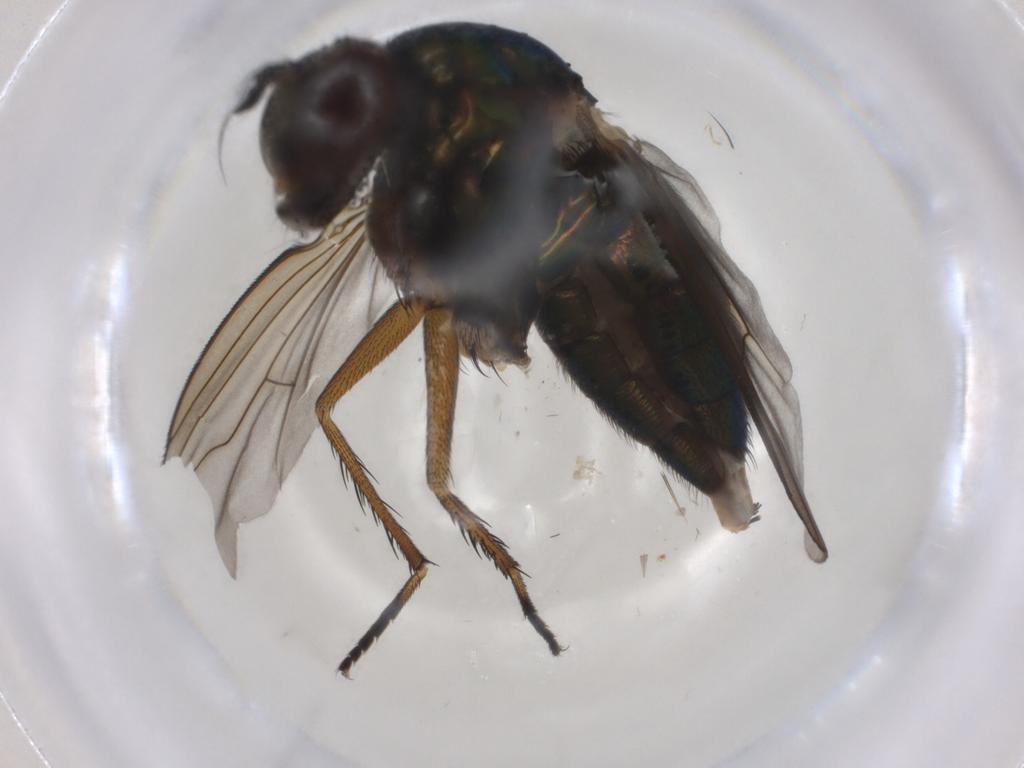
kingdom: Animalia
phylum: Arthropoda
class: Insecta
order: Diptera
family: Dolichopodidae
